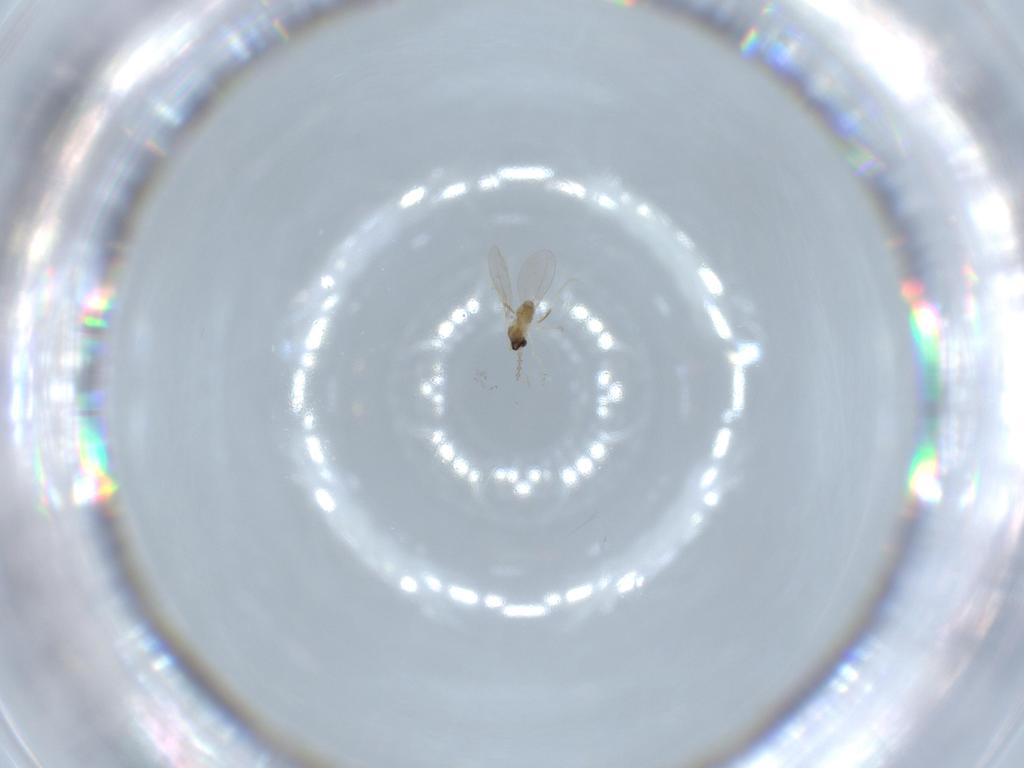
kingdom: Animalia
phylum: Arthropoda
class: Insecta
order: Diptera
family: Cecidomyiidae
